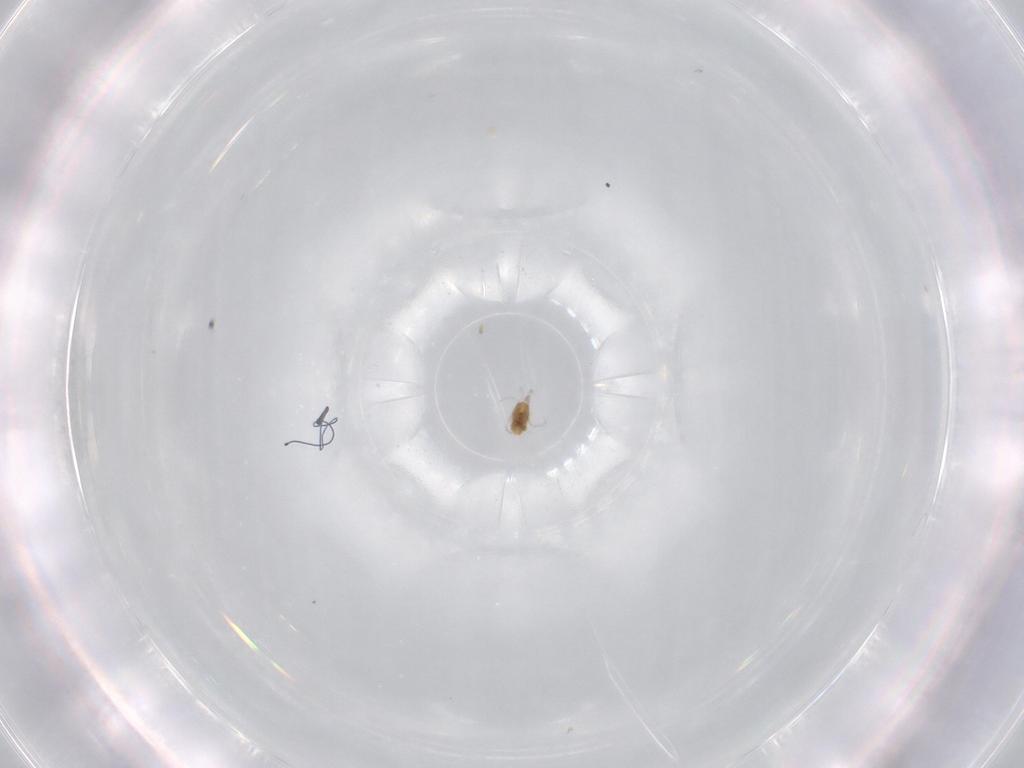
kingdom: Animalia
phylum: Arthropoda
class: Arachnida
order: Trombidiformes
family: Limnesiidae
